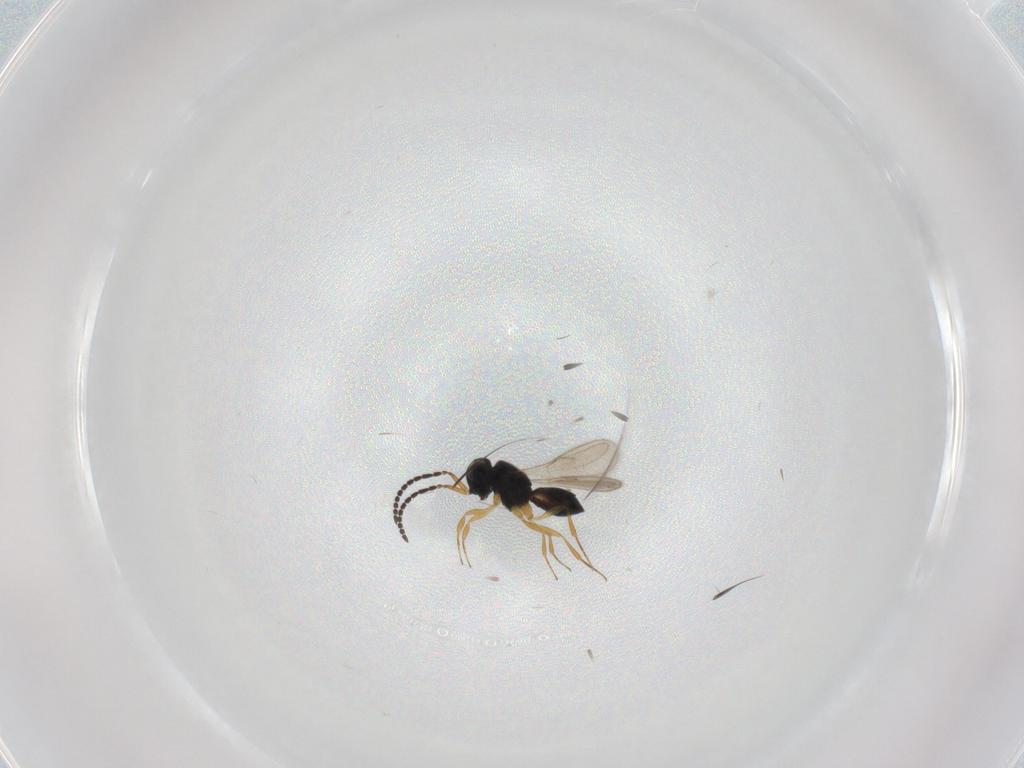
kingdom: Animalia
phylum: Arthropoda
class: Insecta
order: Hymenoptera
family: Scelionidae
